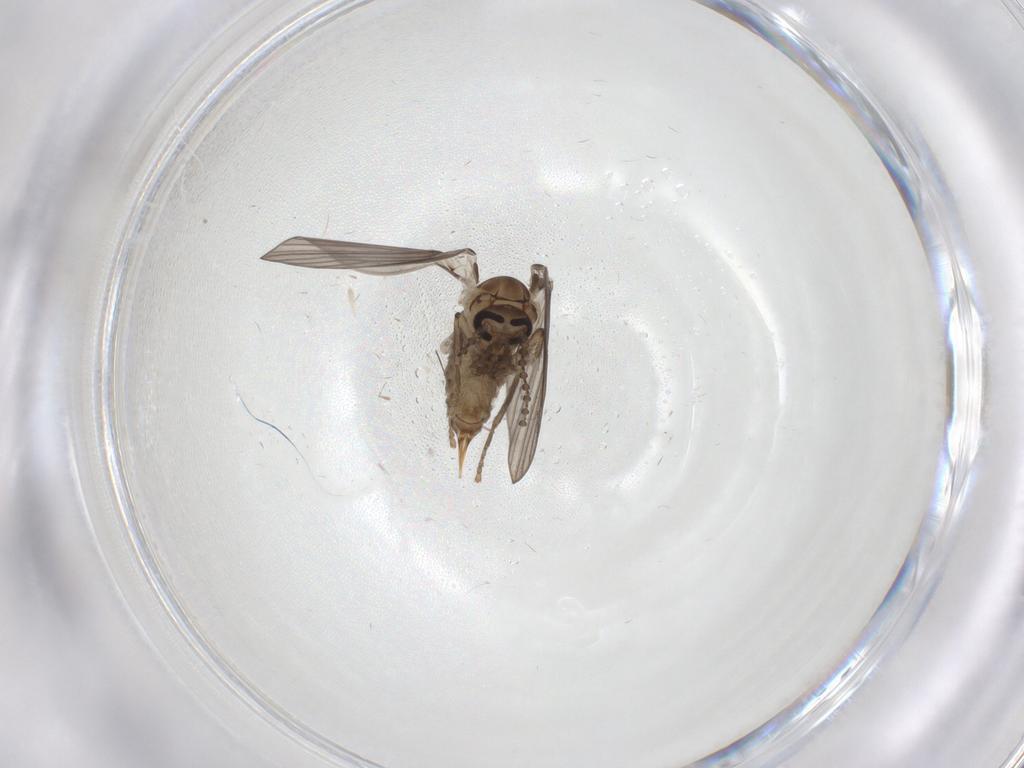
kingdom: Animalia
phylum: Arthropoda
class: Insecta
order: Diptera
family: Psychodidae
